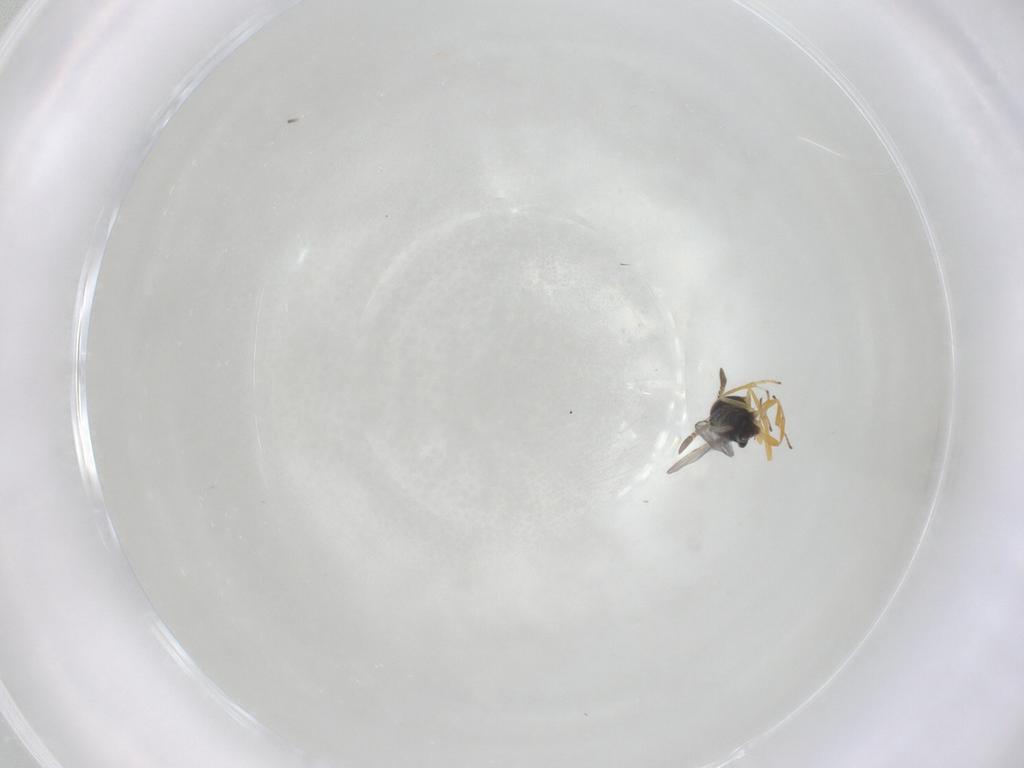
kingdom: Animalia
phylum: Arthropoda
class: Insecta
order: Hymenoptera
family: Encyrtidae
